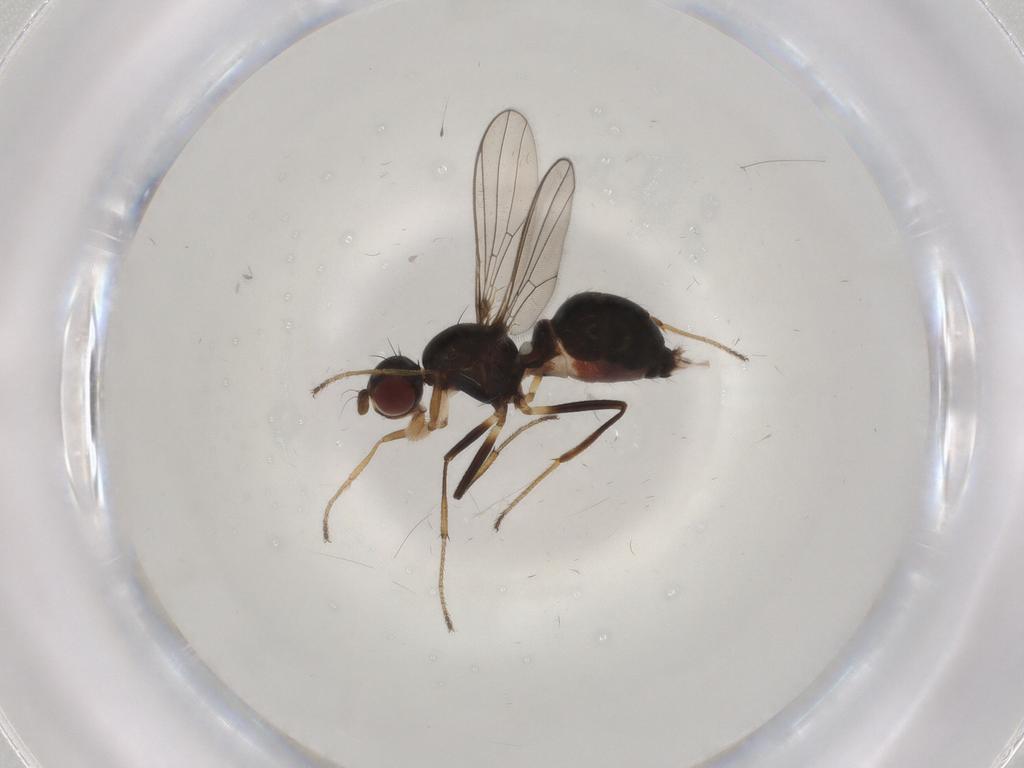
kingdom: Animalia
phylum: Arthropoda
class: Insecta
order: Diptera
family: Sepsidae
